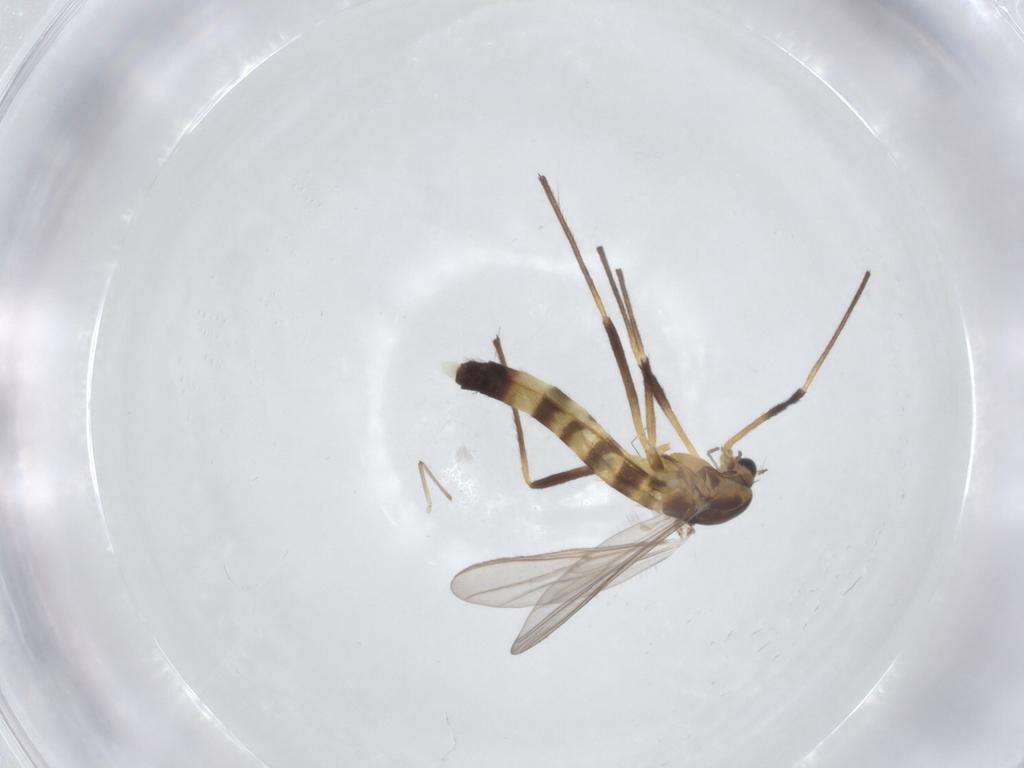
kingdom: Animalia
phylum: Arthropoda
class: Insecta
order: Diptera
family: Chironomidae
